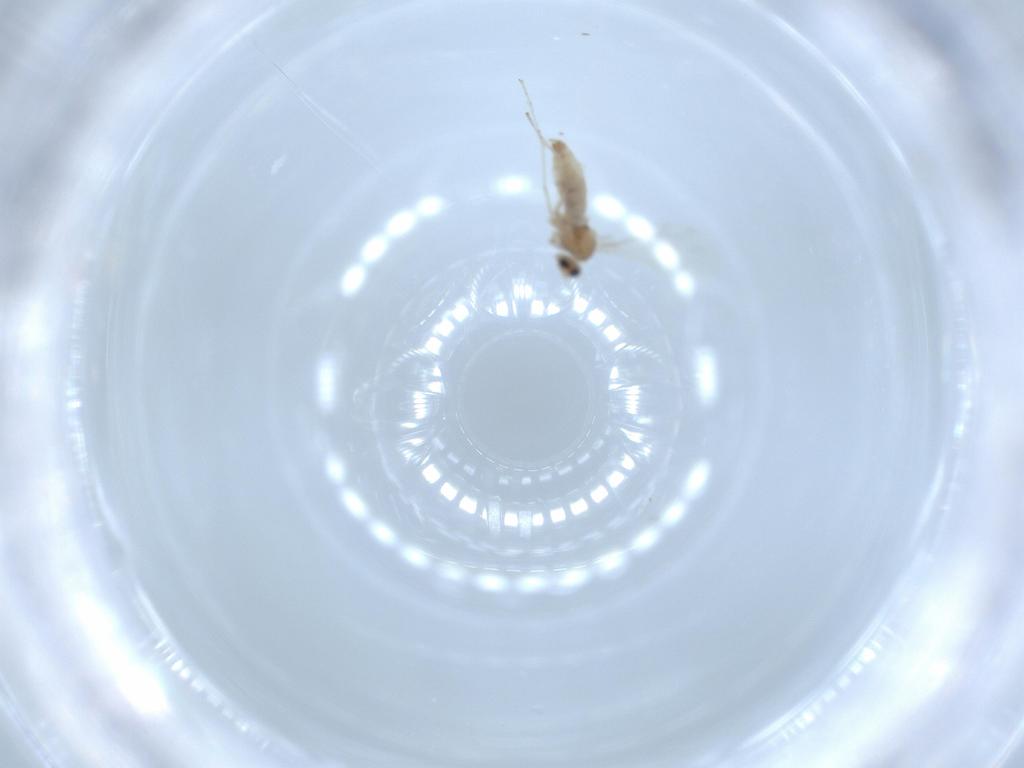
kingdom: Animalia
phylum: Arthropoda
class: Insecta
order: Diptera
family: Cecidomyiidae
